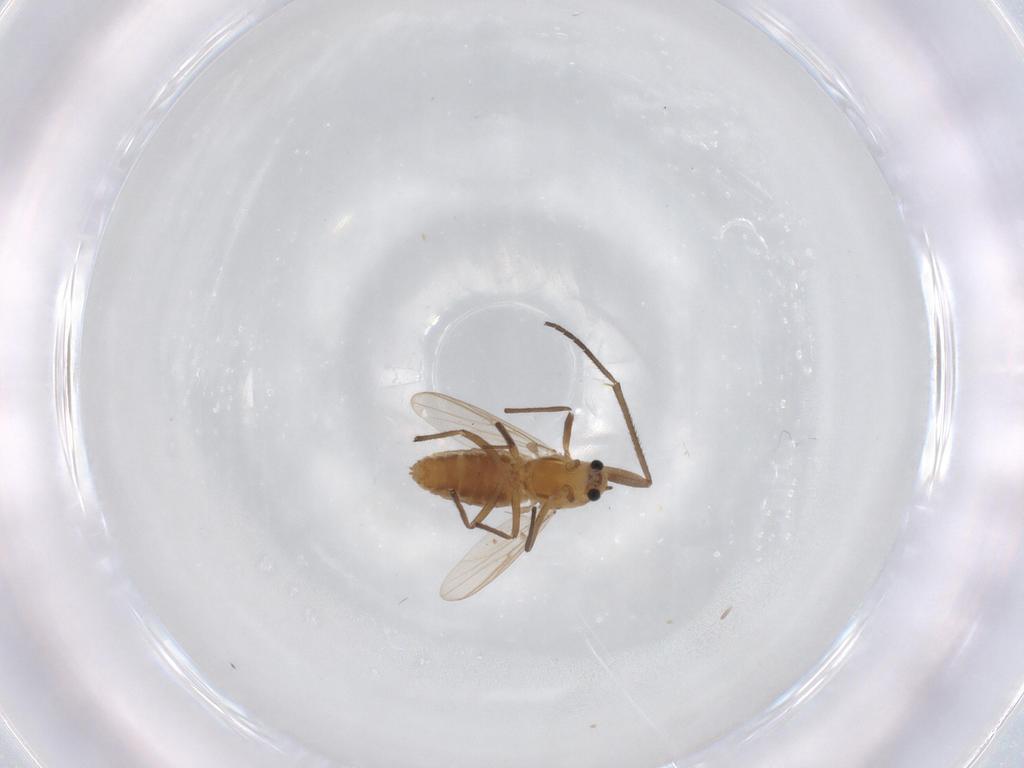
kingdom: Animalia
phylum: Arthropoda
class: Insecta
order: Diptera
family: Chironomidae
